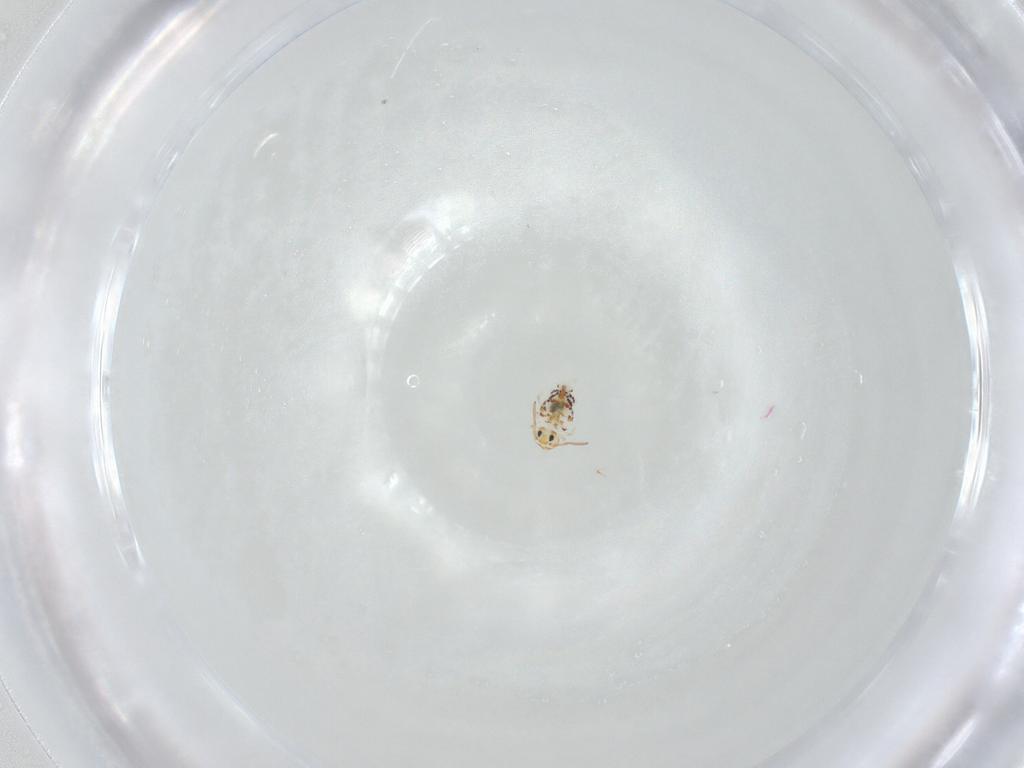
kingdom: Animalia
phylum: Arthropoda
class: Collembola
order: Symphypleona
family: Bourletiellidae
